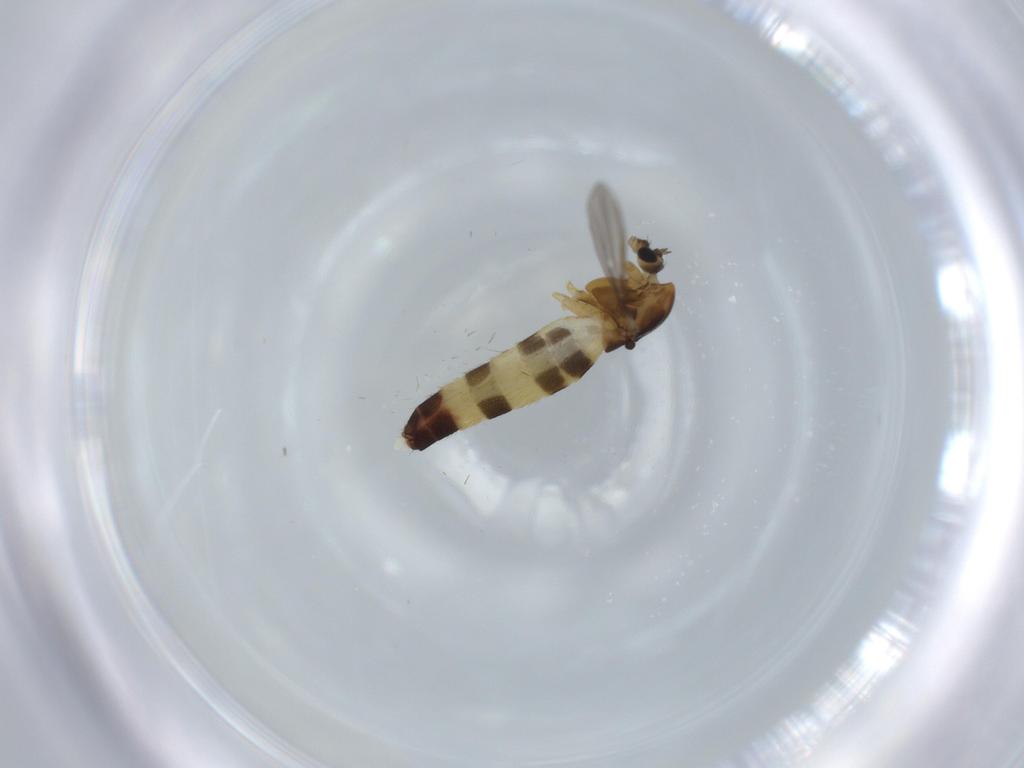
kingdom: Animalia
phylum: Arthropoda
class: Insecta
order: Diptera
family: Chironomidae
